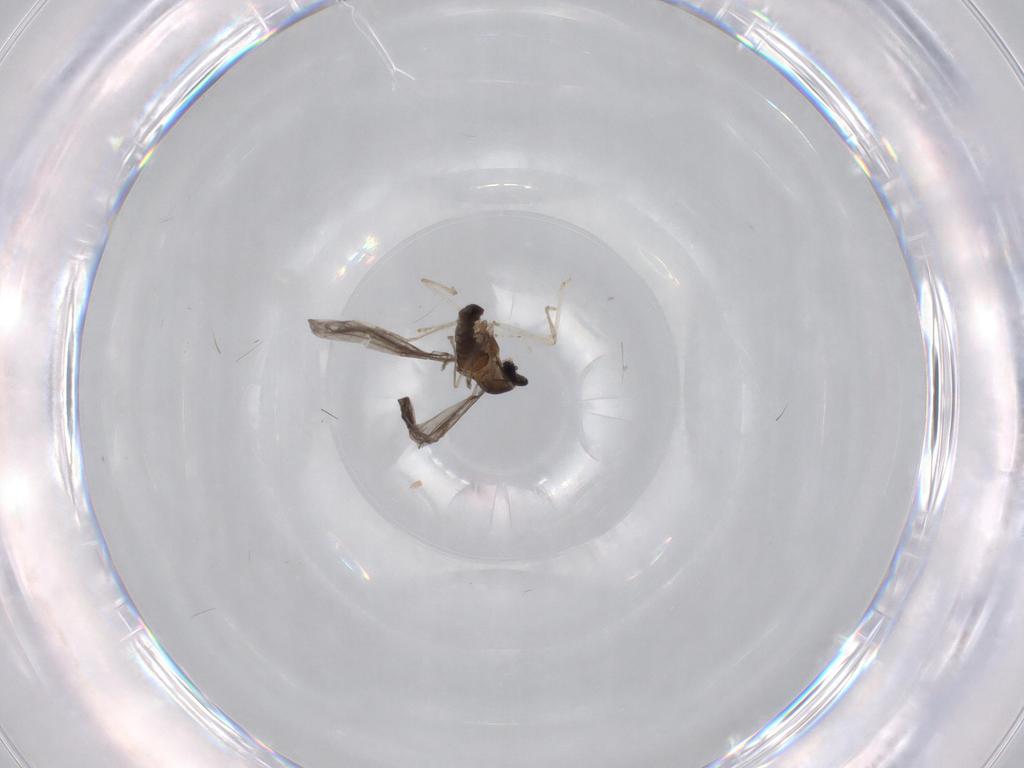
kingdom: Animalia
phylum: Arthropoda
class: Insecta
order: Diptera
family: Cecidomyiidae
